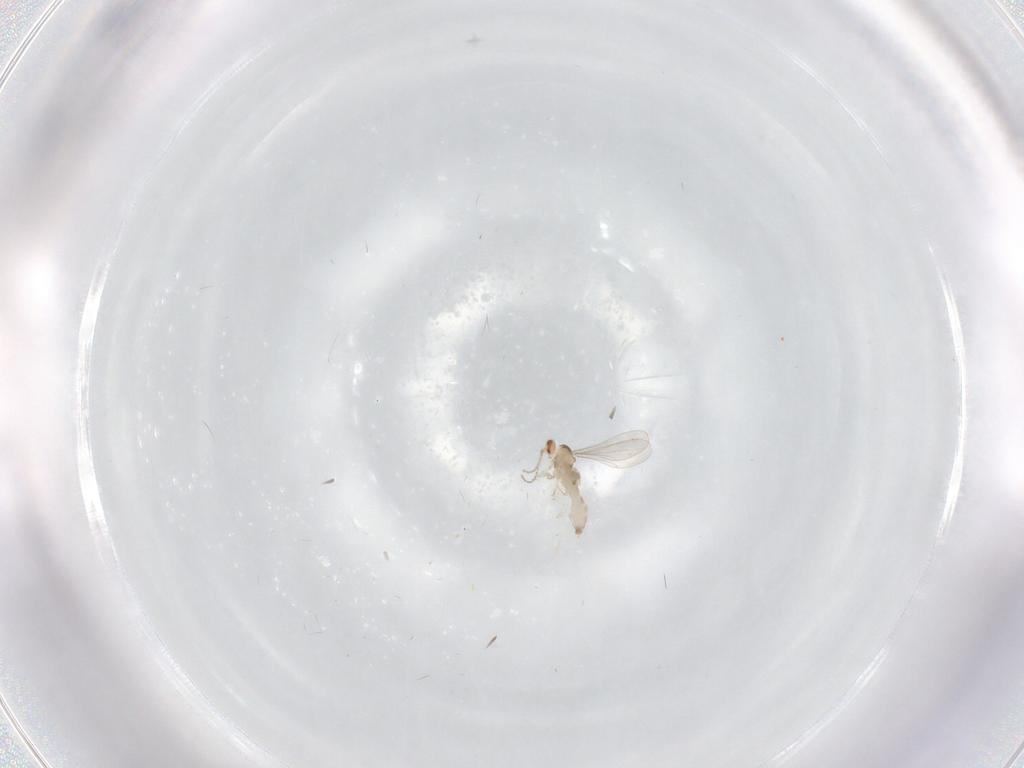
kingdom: Animalia
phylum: Arthropoda
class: Insecta
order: Diptera
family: Cecidomyiidae
